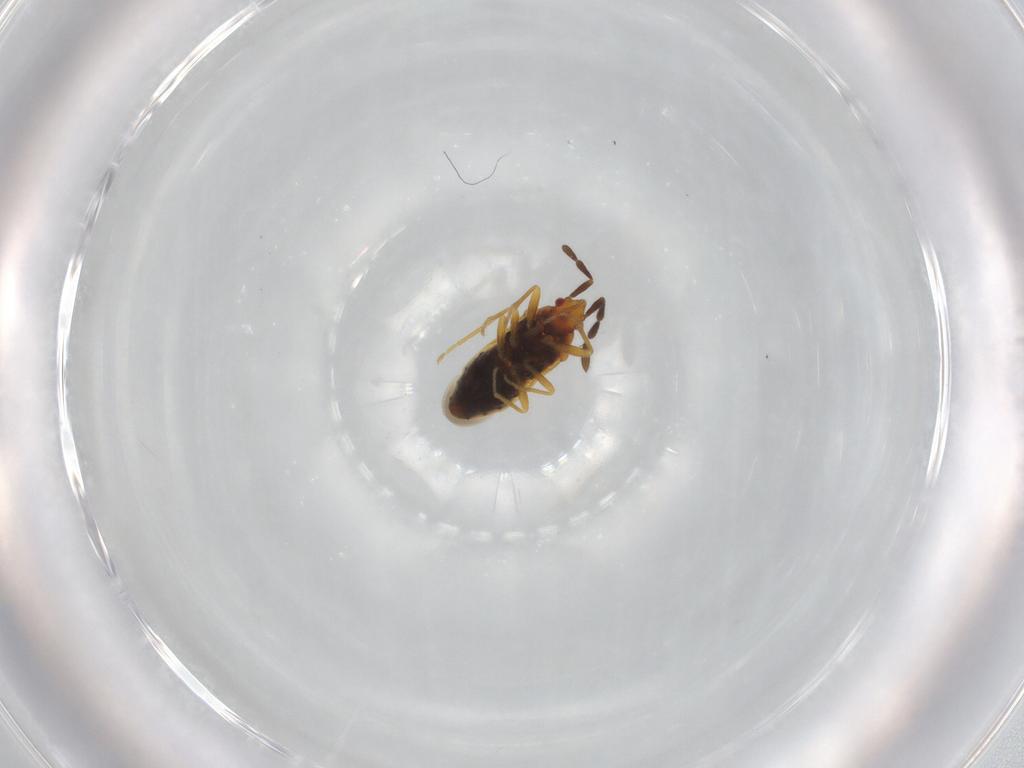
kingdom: Animalia
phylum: Arthropoda
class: Insecta
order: Hemiptera
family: Rhyparochromidae
